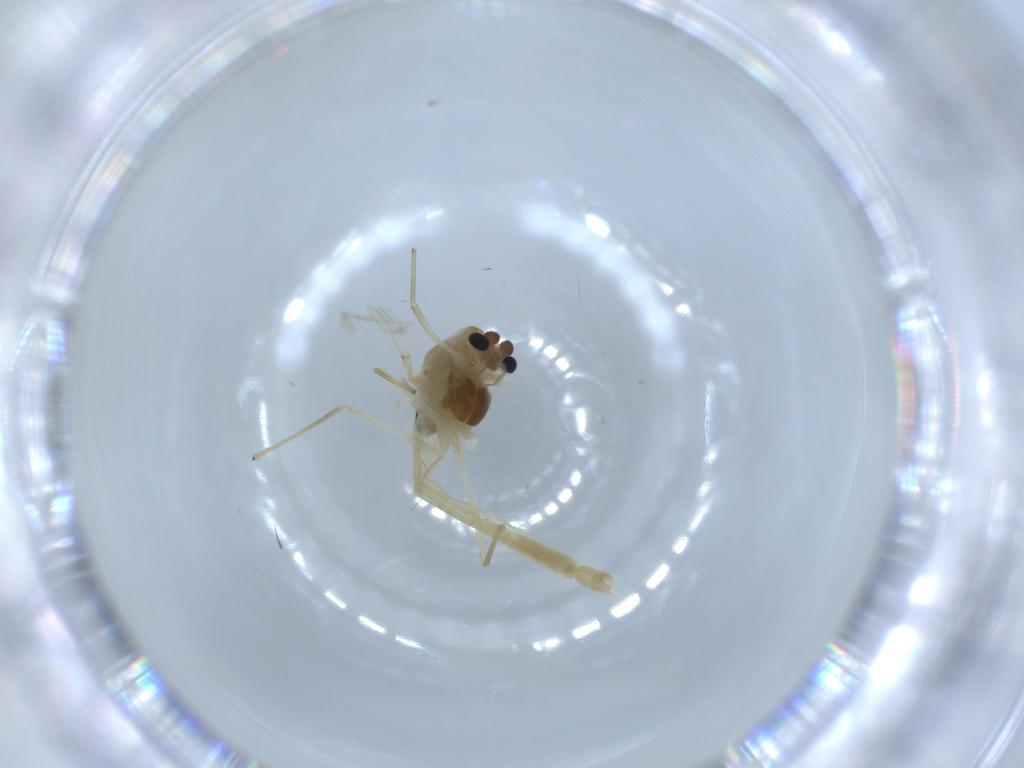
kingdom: Animalia
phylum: Arthropoda
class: Insecta
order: Diptera
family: Chironomidae
